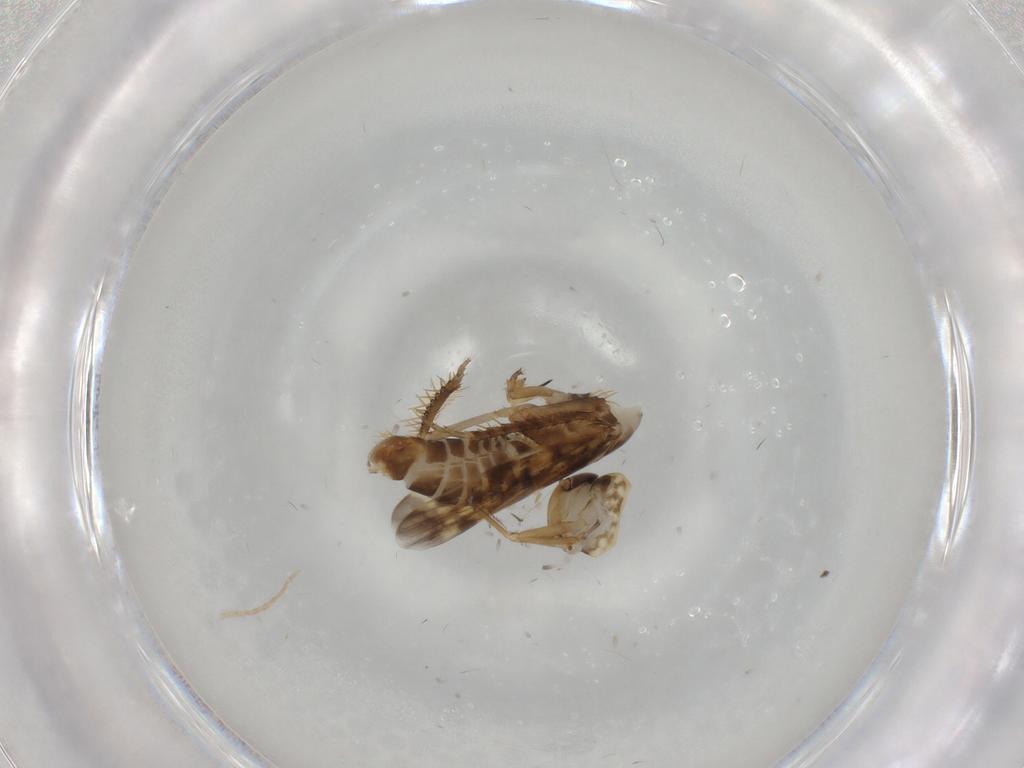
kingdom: Animalia
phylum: Arthropoda
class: Insecta
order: Hemiptera
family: Cicadellidae
